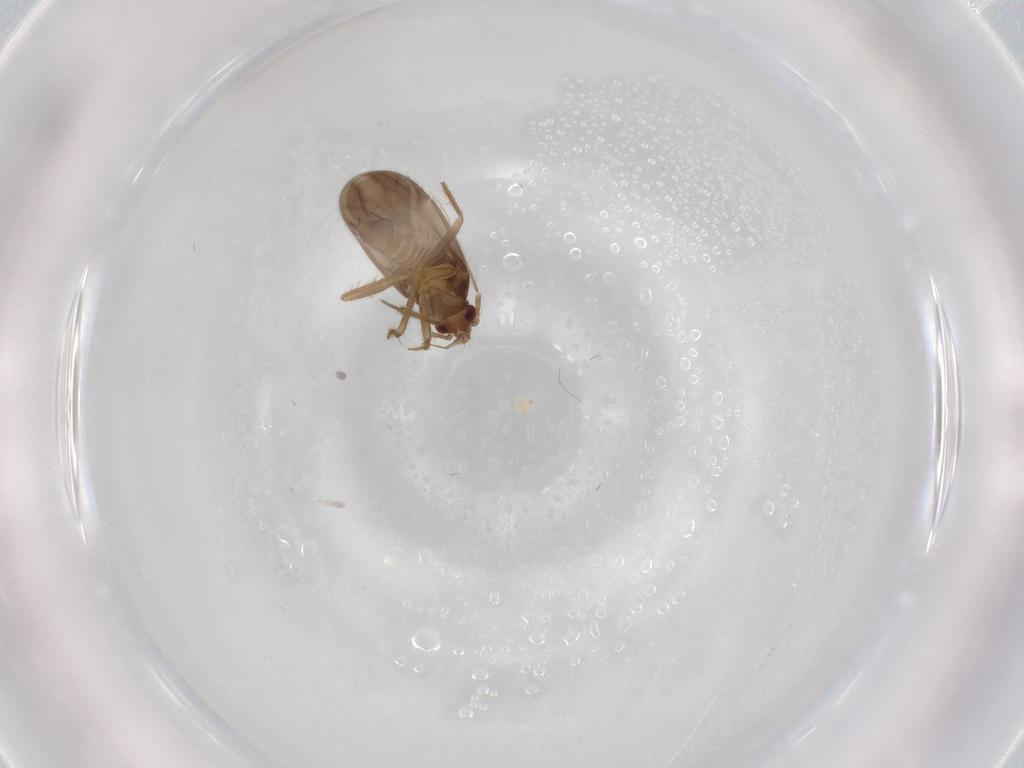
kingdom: Animalia
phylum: Arthropoda
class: Insecta
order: Hemiptera
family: Ceratocombidae
